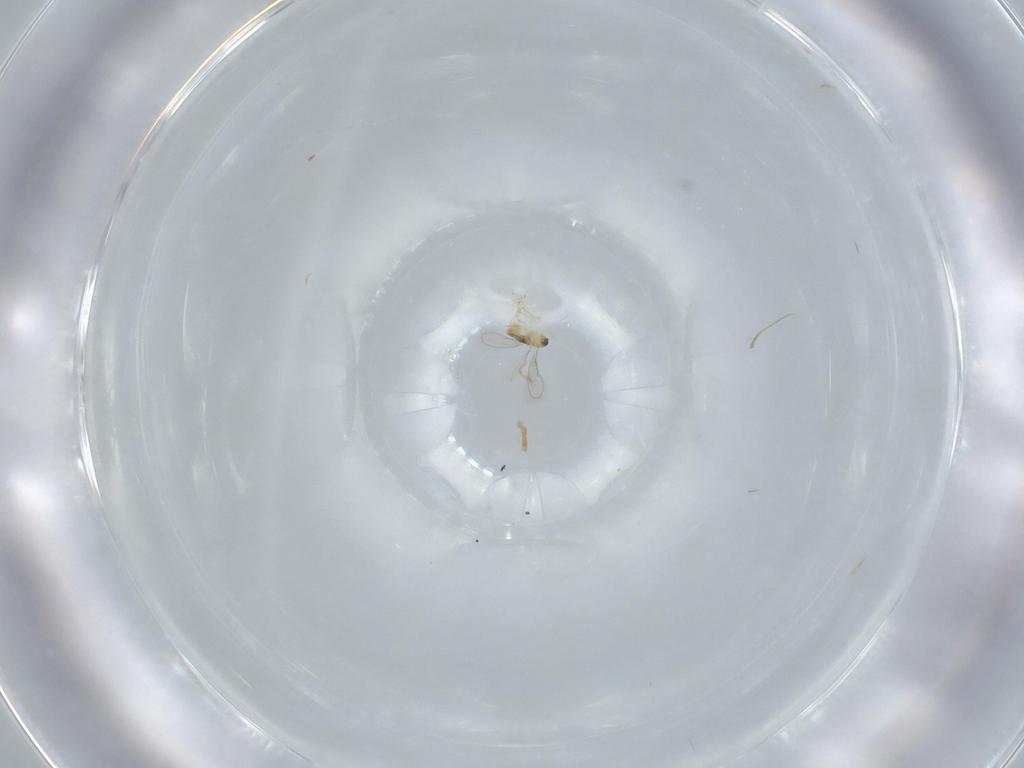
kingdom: Animalia
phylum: Arthropoda
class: Insecta
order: Hymenoptera
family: Aphelinidae
